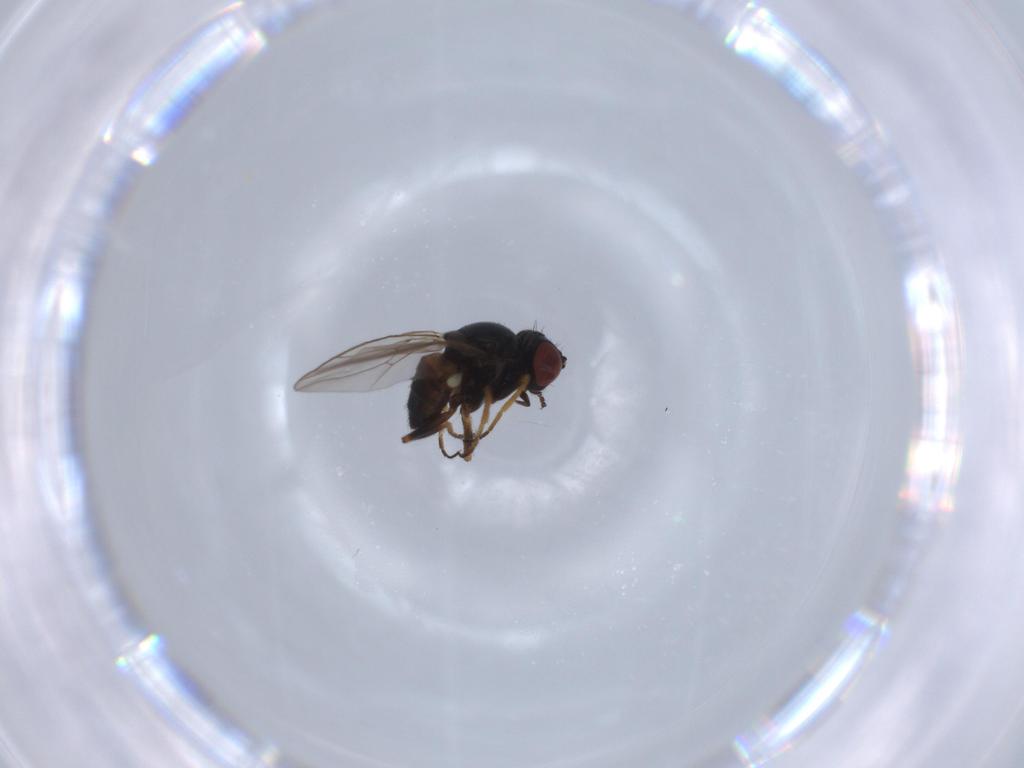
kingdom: Animalia
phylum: Arthropoda
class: Insecta
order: Diptera
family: Chloropidae
